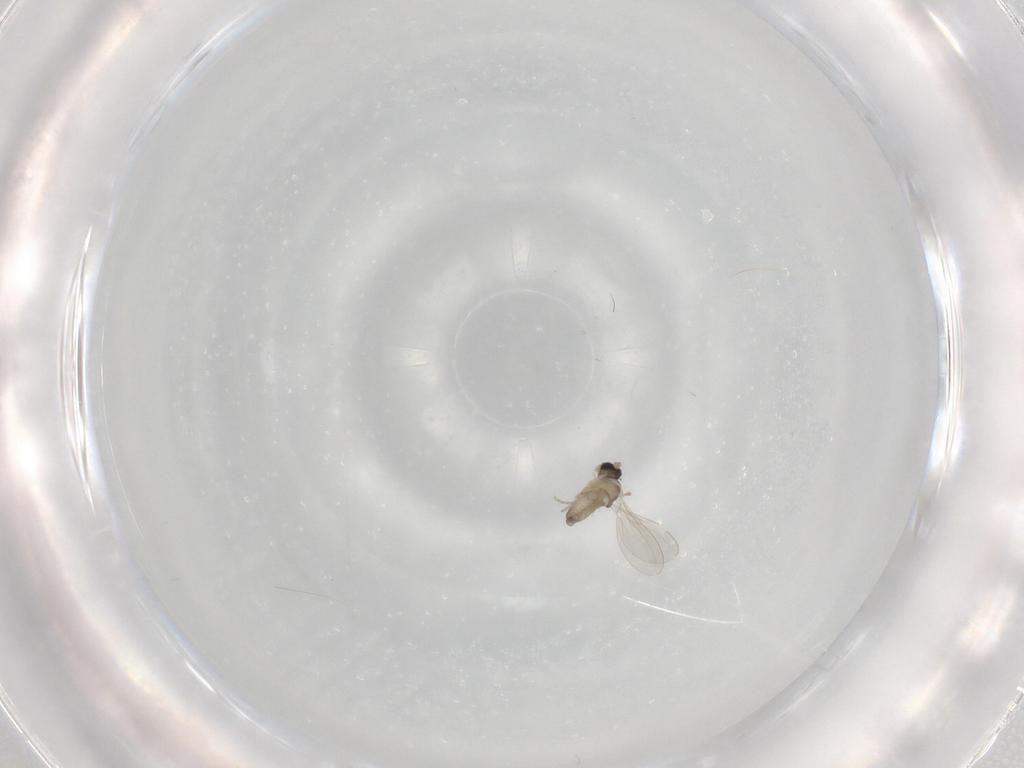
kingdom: Animalia
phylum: Arthropoda
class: Insecta
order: Diptera
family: Cecidomyiidae
